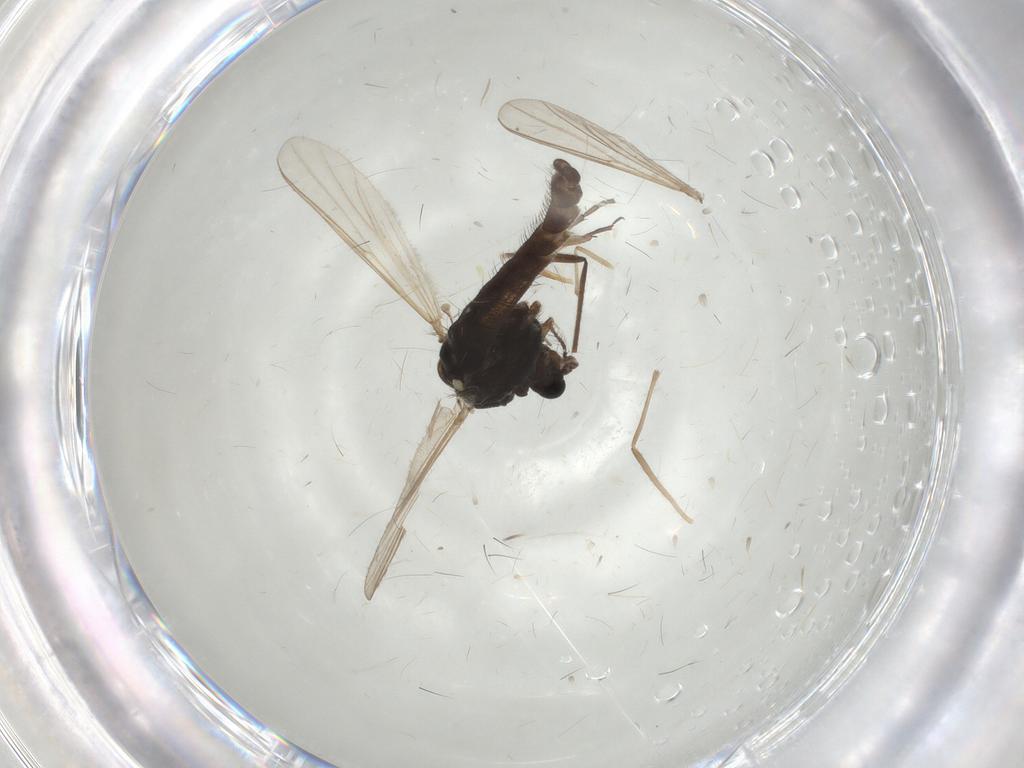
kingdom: Animalia
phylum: Arthropoda
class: Insecta
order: Diptera
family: Chironomidae
